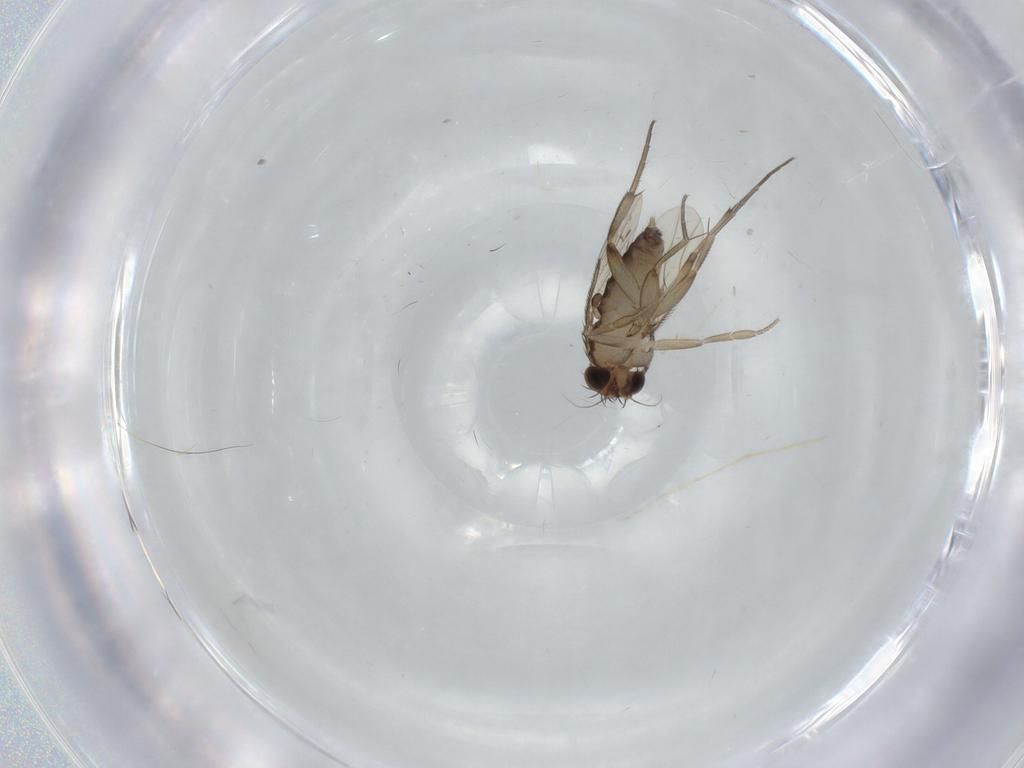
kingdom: Animalia
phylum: Arthropoda
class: Insecta
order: Diptera
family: Phoridae
